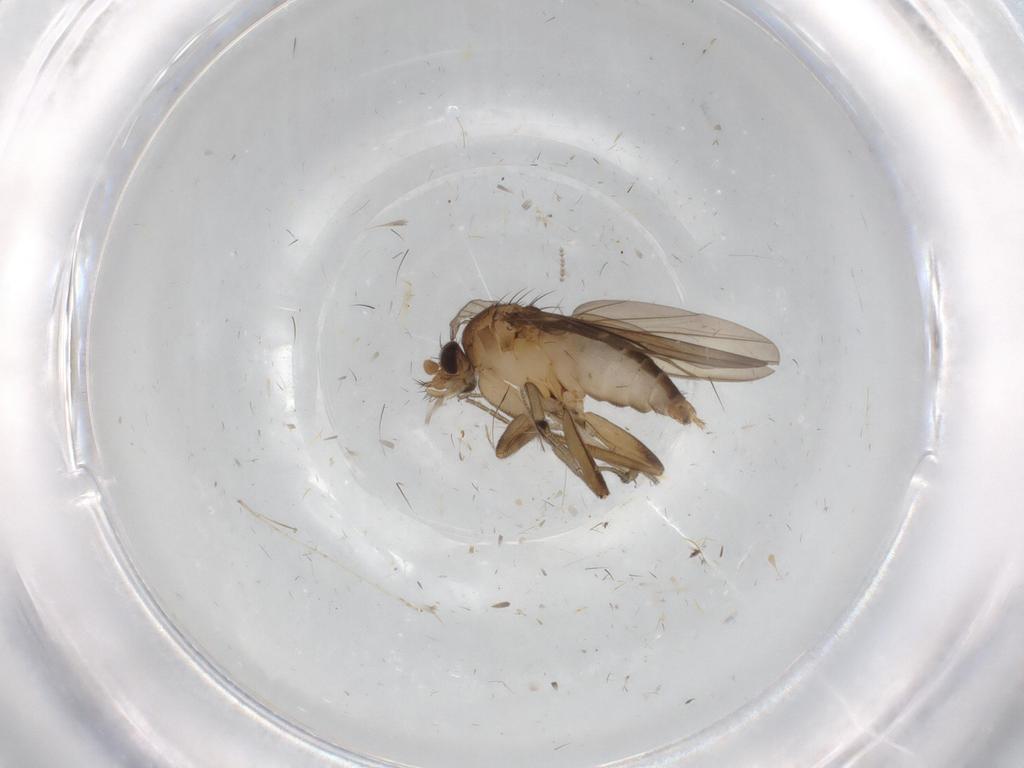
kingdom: Animalia
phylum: Arthropoda
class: Insecta
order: Diptera
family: Cecidomyiidae
